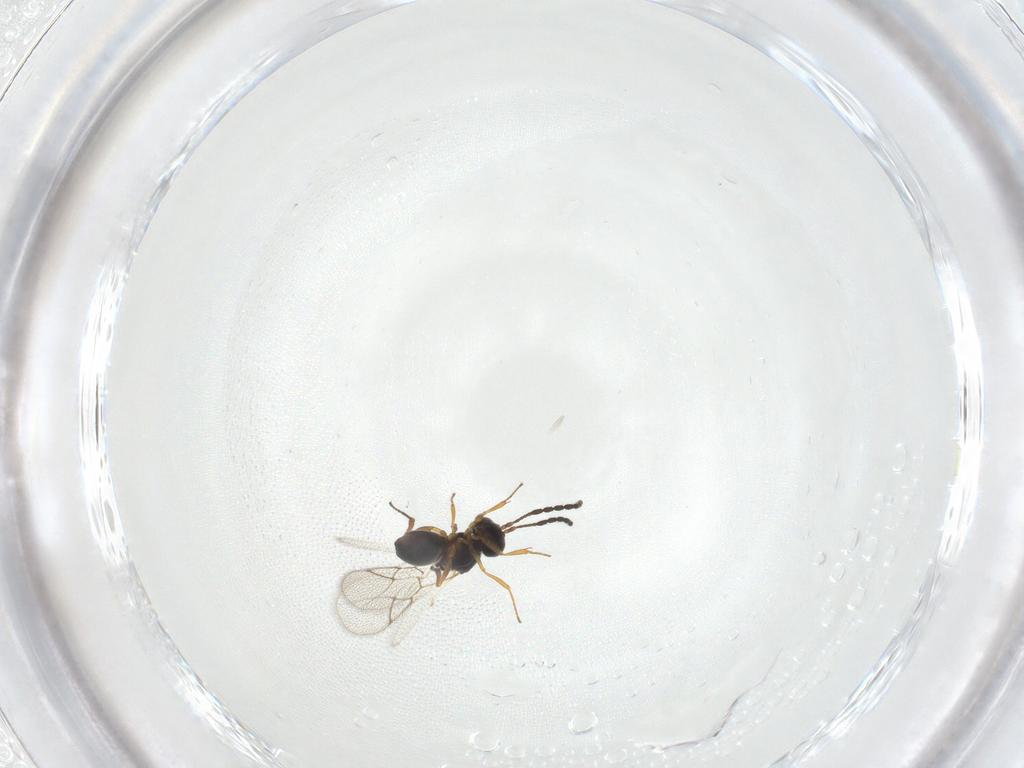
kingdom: Animalia
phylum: Arthropoda
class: Insecta
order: Hymenoptera
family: Figitidae
